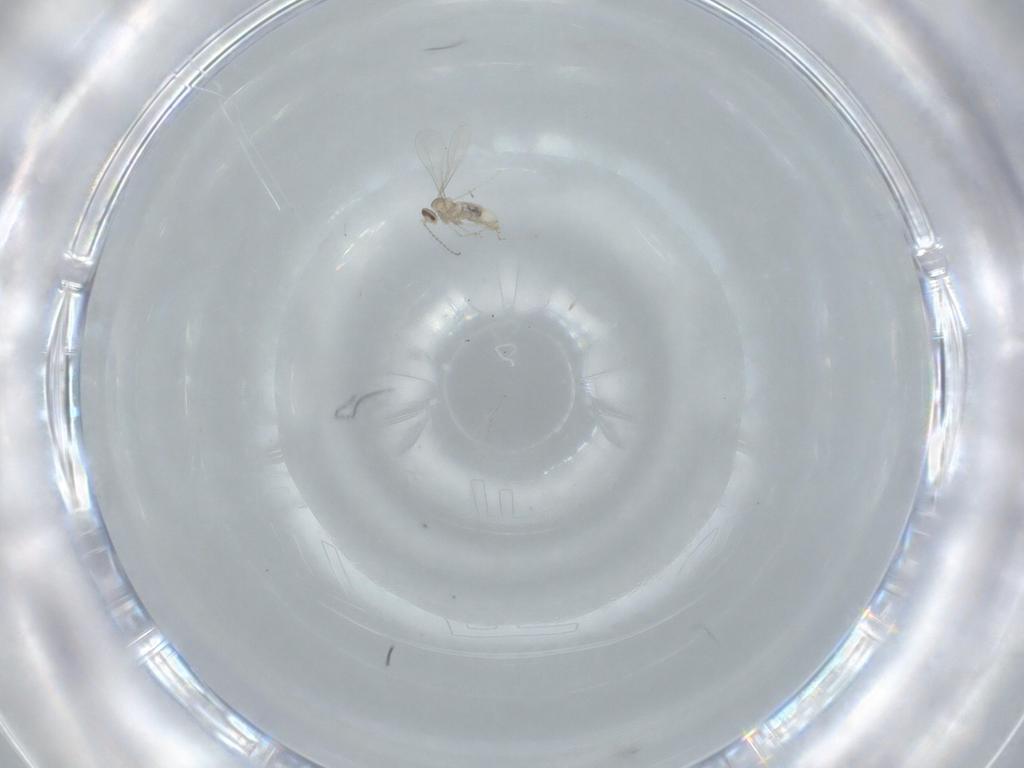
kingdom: Animalia
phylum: Arthropoda
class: Insecta
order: Diptera
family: Cecidomyiidae
